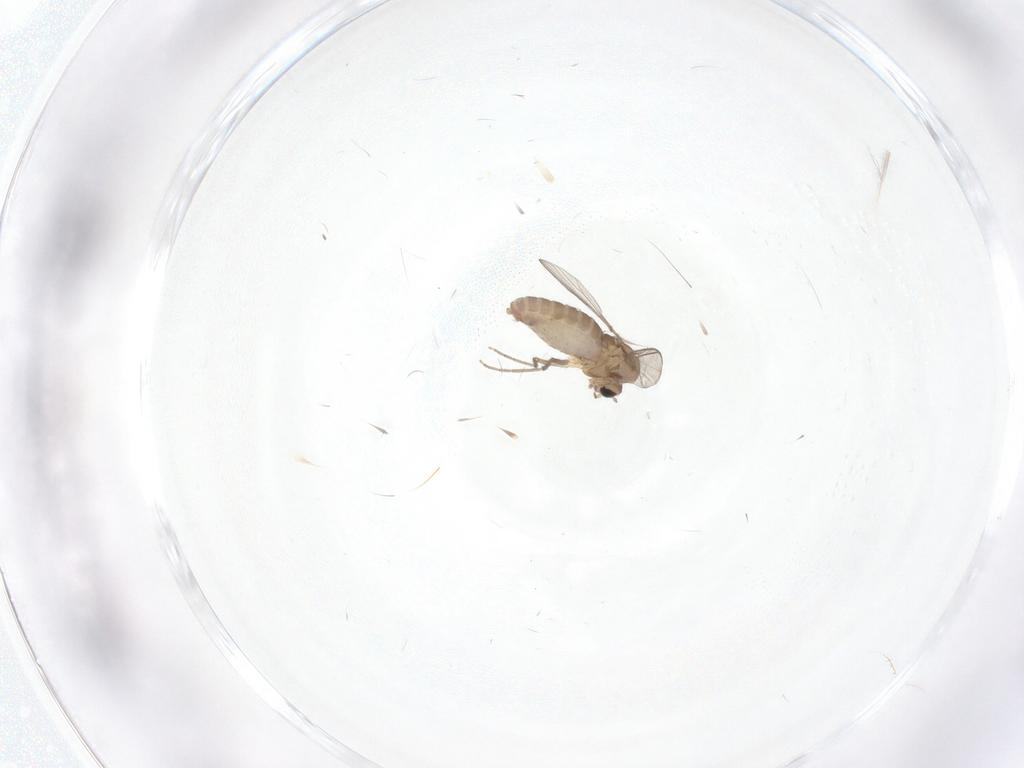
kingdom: Animalia
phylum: Arthropoda
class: Insecta
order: Diptera
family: Chironomidae
